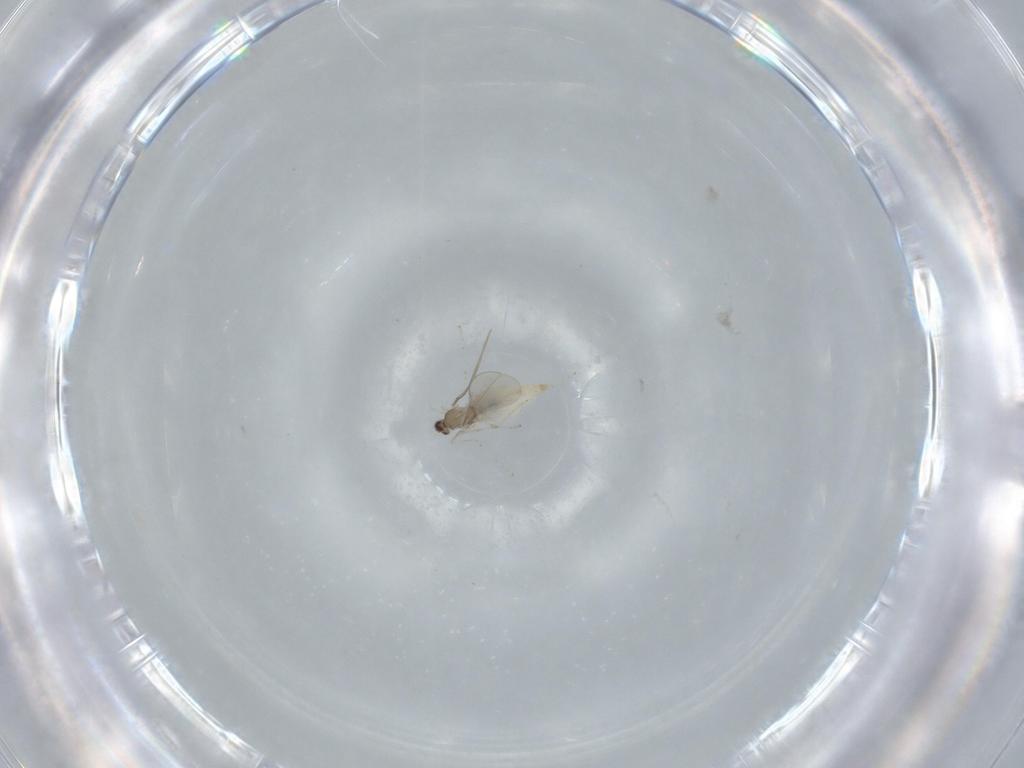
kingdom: Animalia
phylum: Arthropoda
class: Insecta
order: Diptera
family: Cecidomyiidae
